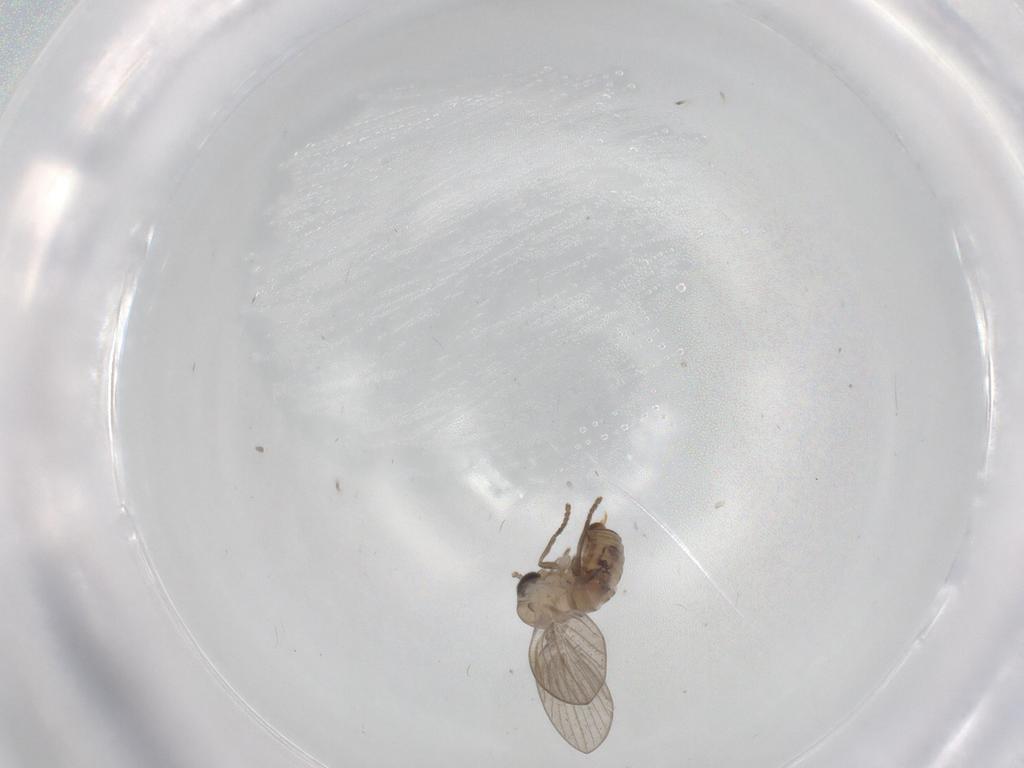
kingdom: Animalia
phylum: Arthropoda
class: Insecta
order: Diptera
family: Psychodidae
